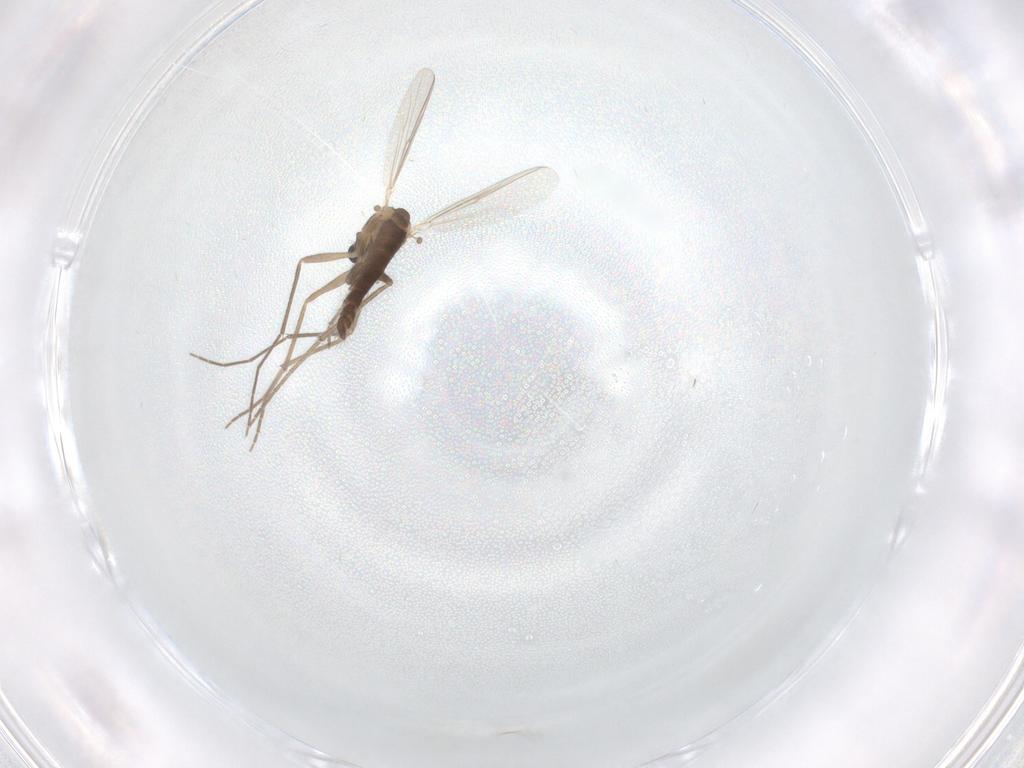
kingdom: Animalia
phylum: Arthropoda
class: Insecta
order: Diptera
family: Chironomidae
